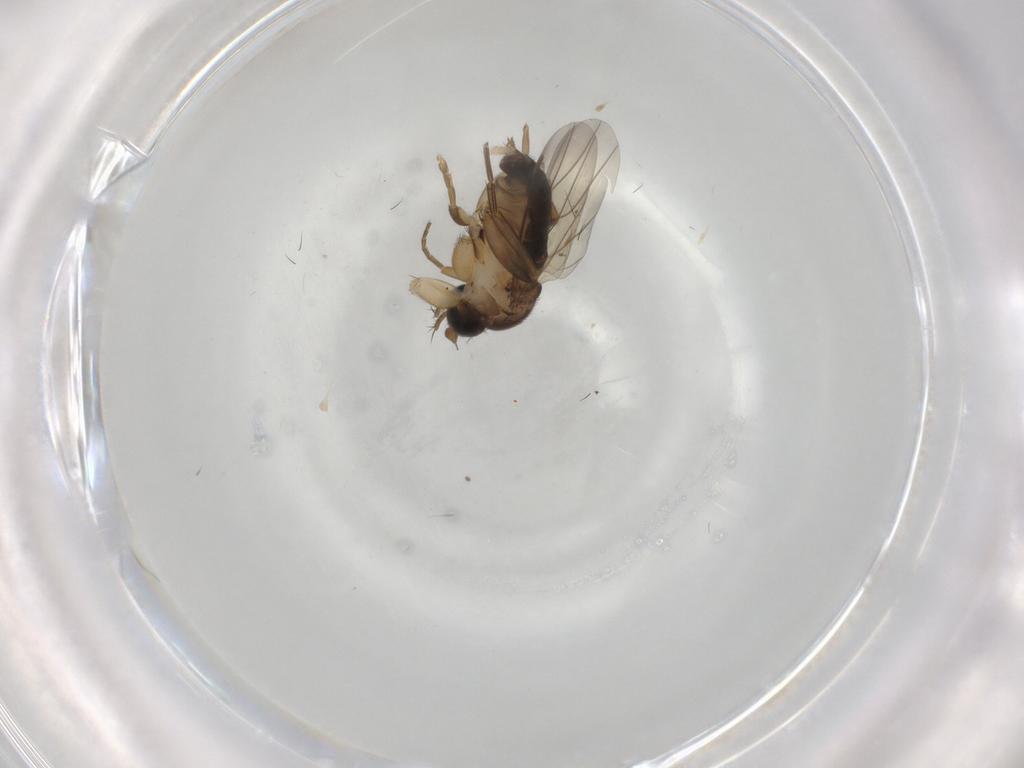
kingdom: Animalia
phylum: Arthropoda
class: Insecta
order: Diptera
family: Phoridae
